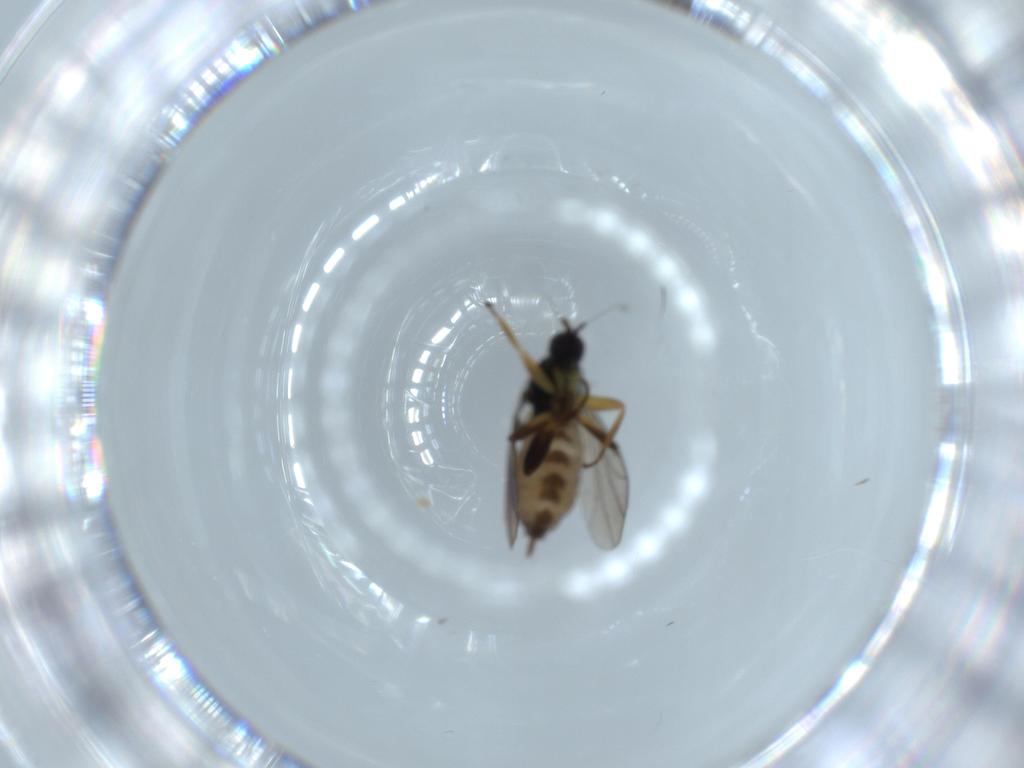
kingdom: Animalia
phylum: Arthropoda
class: Insecta
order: Diptera
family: Hybotidae
